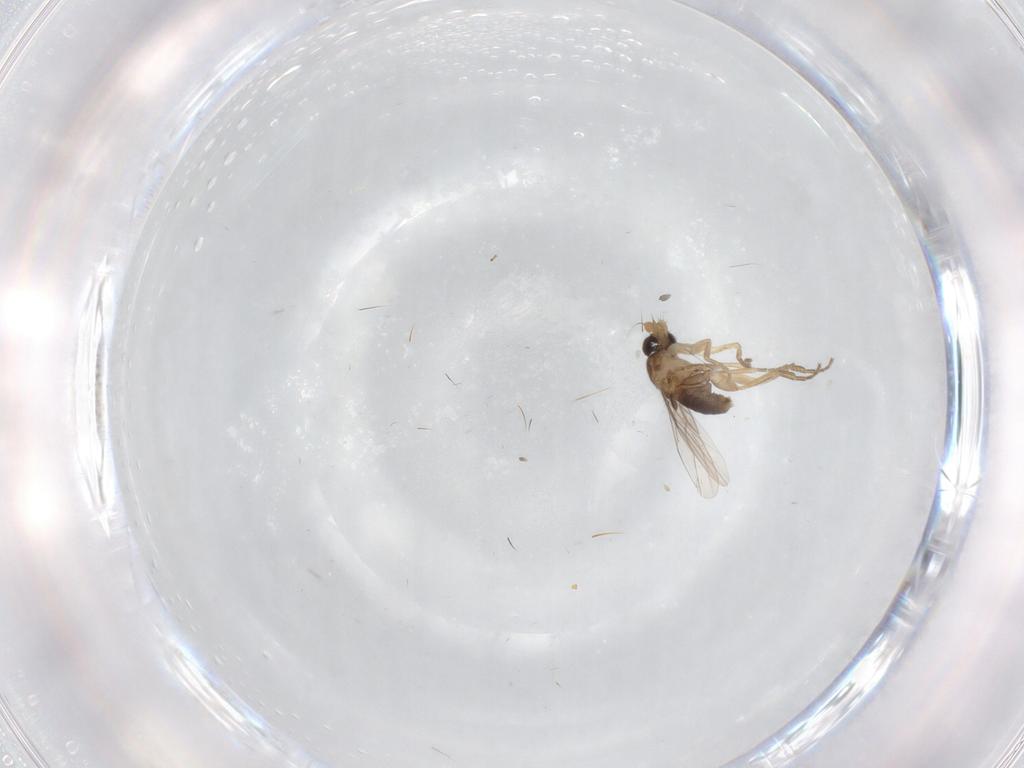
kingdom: Animalia
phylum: Arthropoda
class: Insecta
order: Diptera
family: Phoridae
